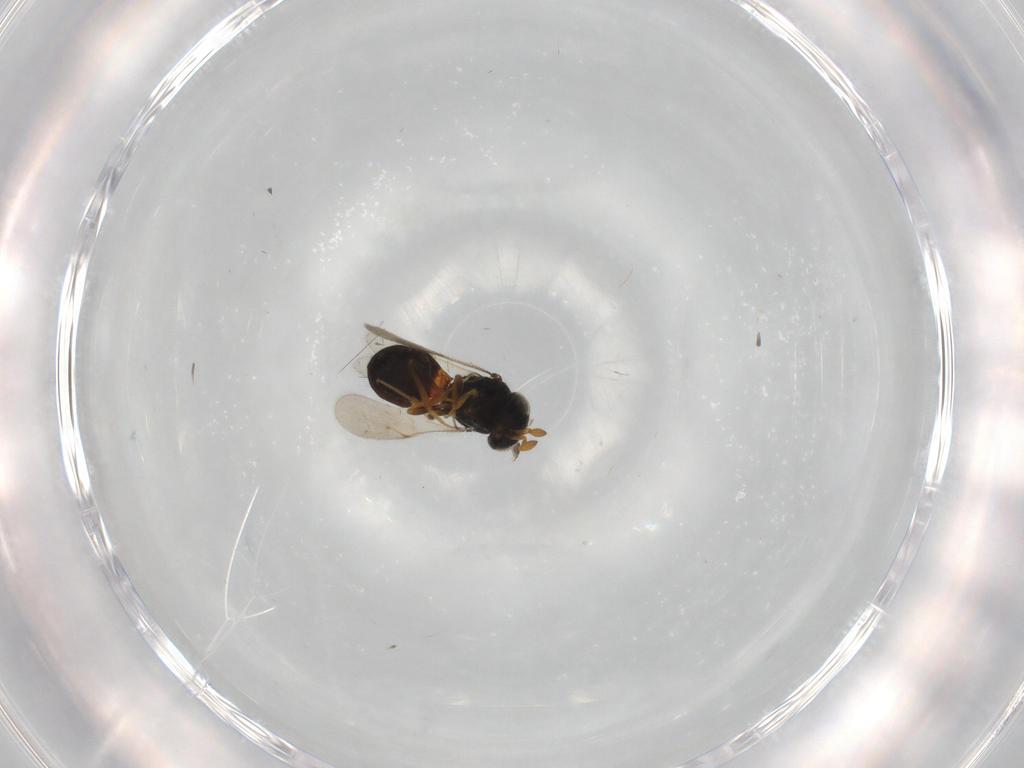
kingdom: Animalia
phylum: Arthropoda
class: Insecta
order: Hymenoptera
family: Scelionidae
